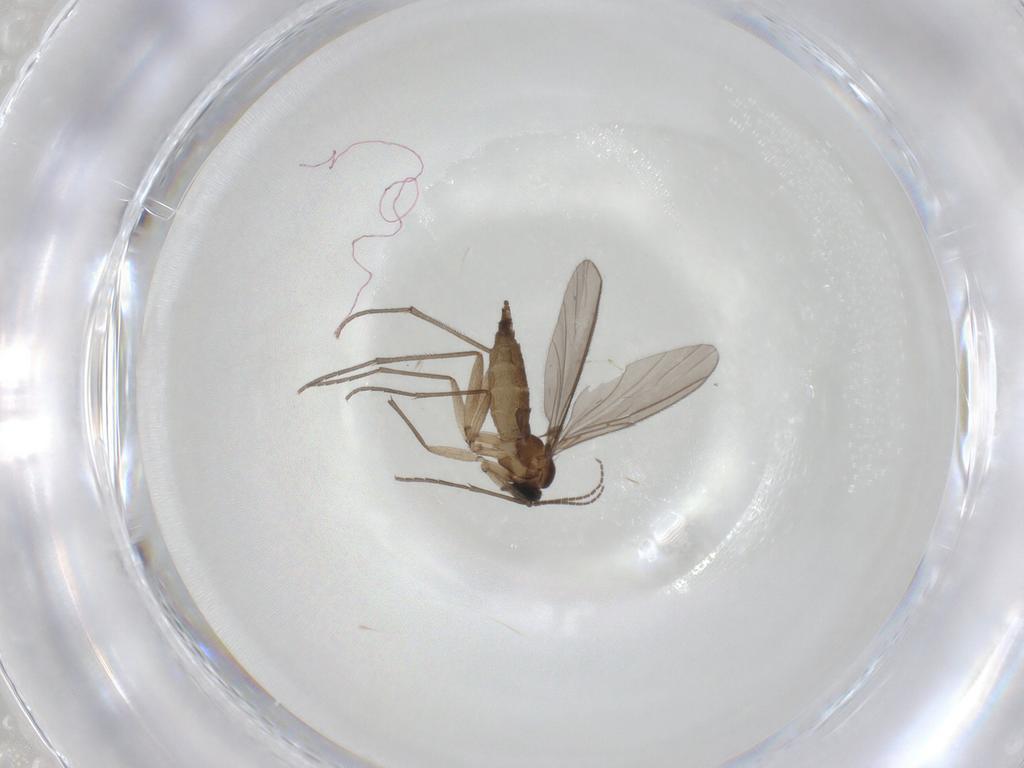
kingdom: Animalia
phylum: Arthropoda
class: Insecta
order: Diptera
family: Sciaridae
